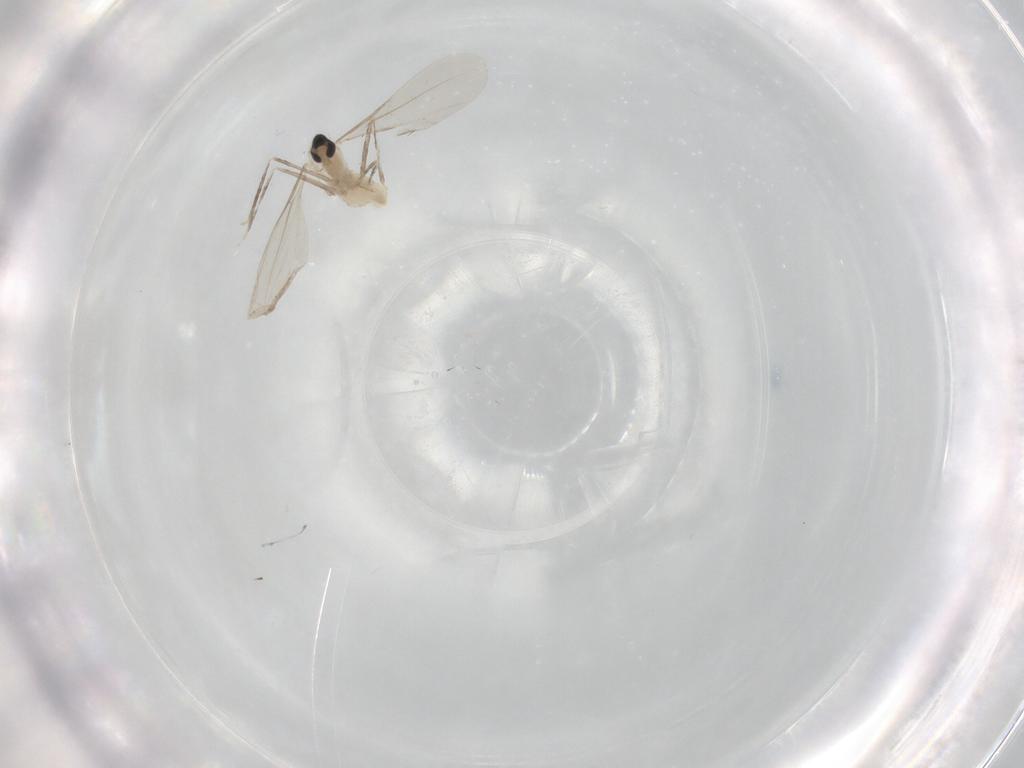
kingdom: Animalia
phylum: Arthropoda
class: Insecta
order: Diptera
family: Cecidomyiidae
